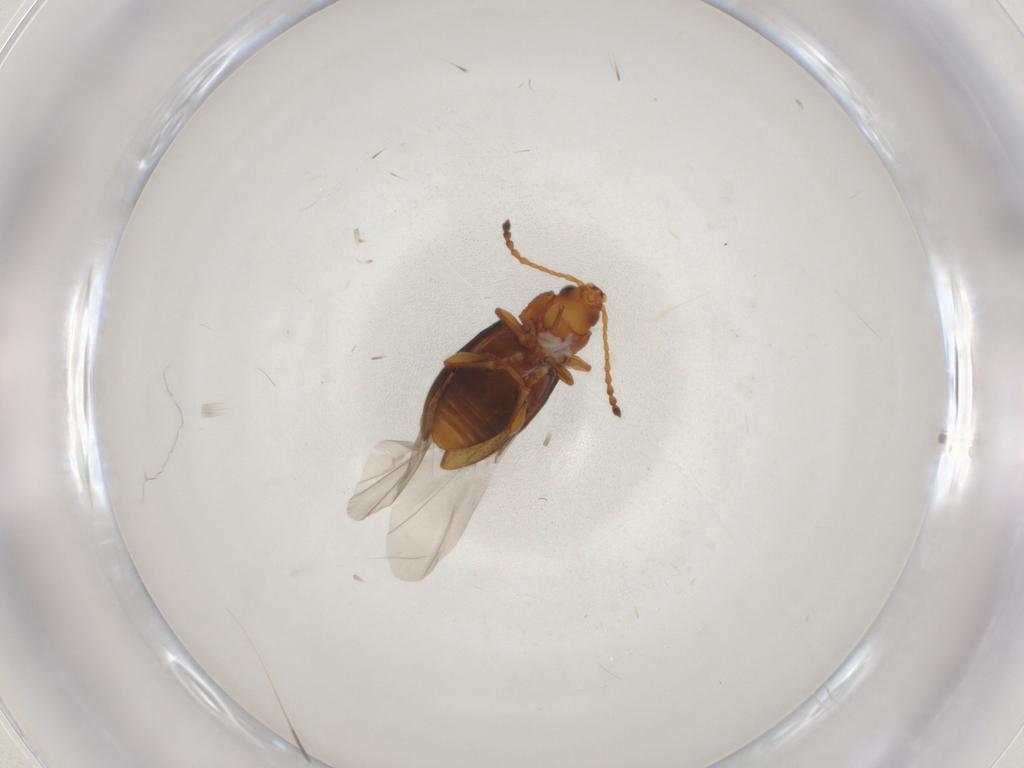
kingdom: Animalia
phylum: Arthropoda
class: Insecta
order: Coleoptera
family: Chrysomelidae
